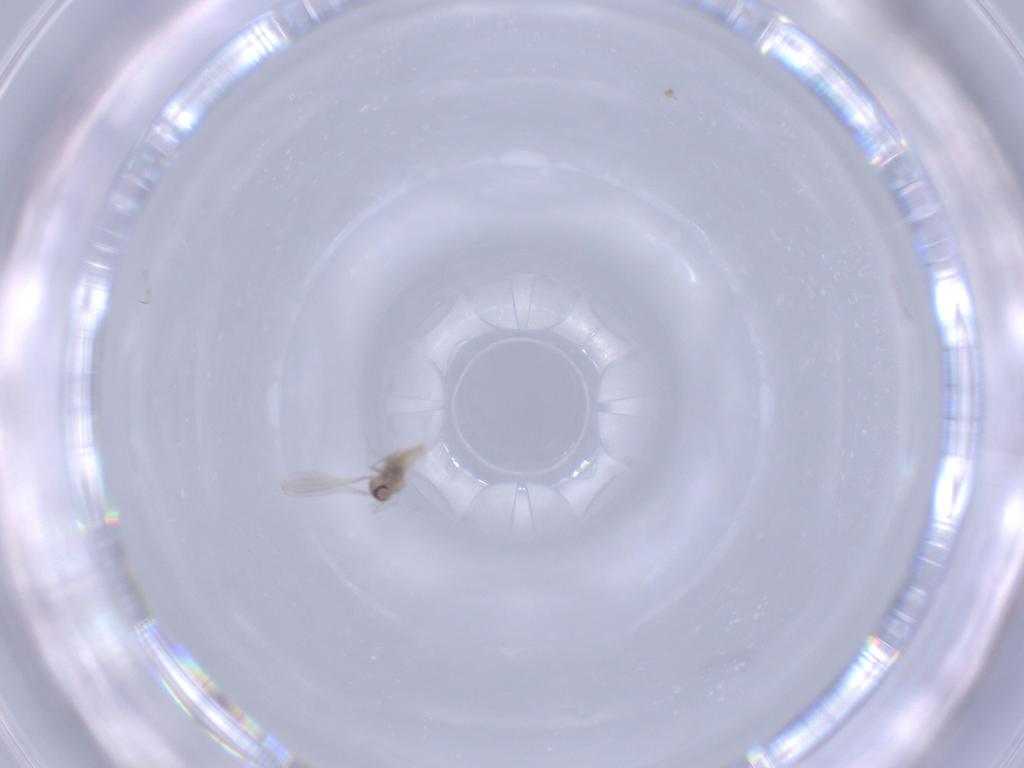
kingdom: Animalia
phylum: Arthropoda
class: Insecta
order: Diptera
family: Cecidomyiidae
